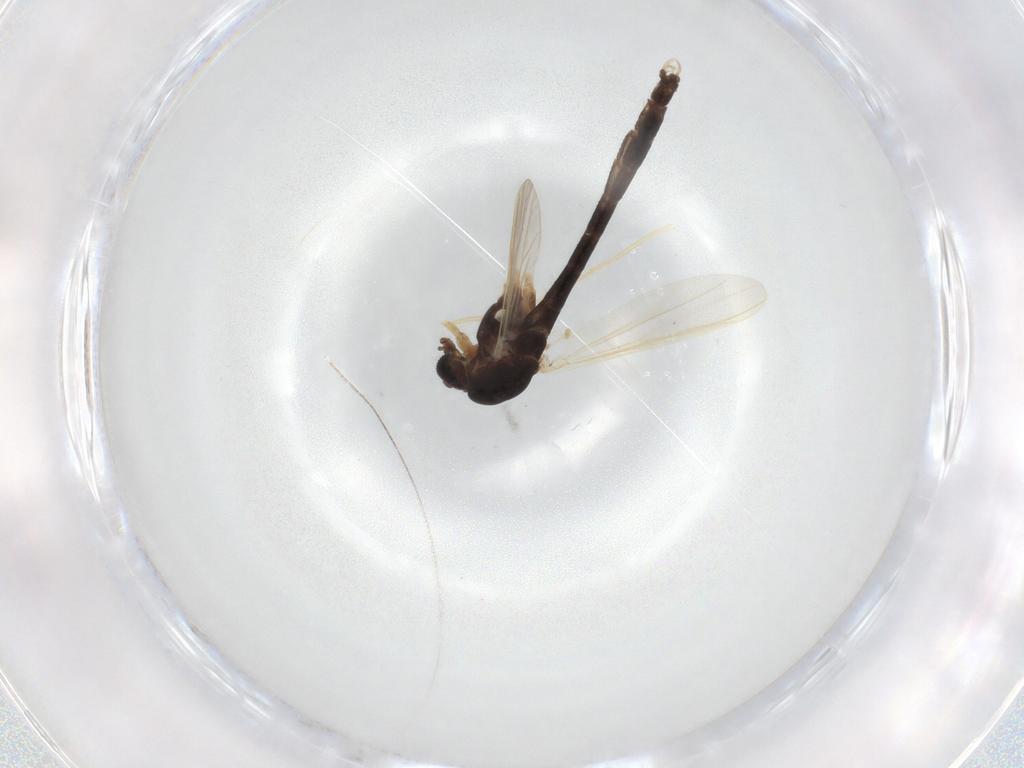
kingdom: Animalia
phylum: Arthropoda
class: Insecta
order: Diptera
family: Chironomidae
